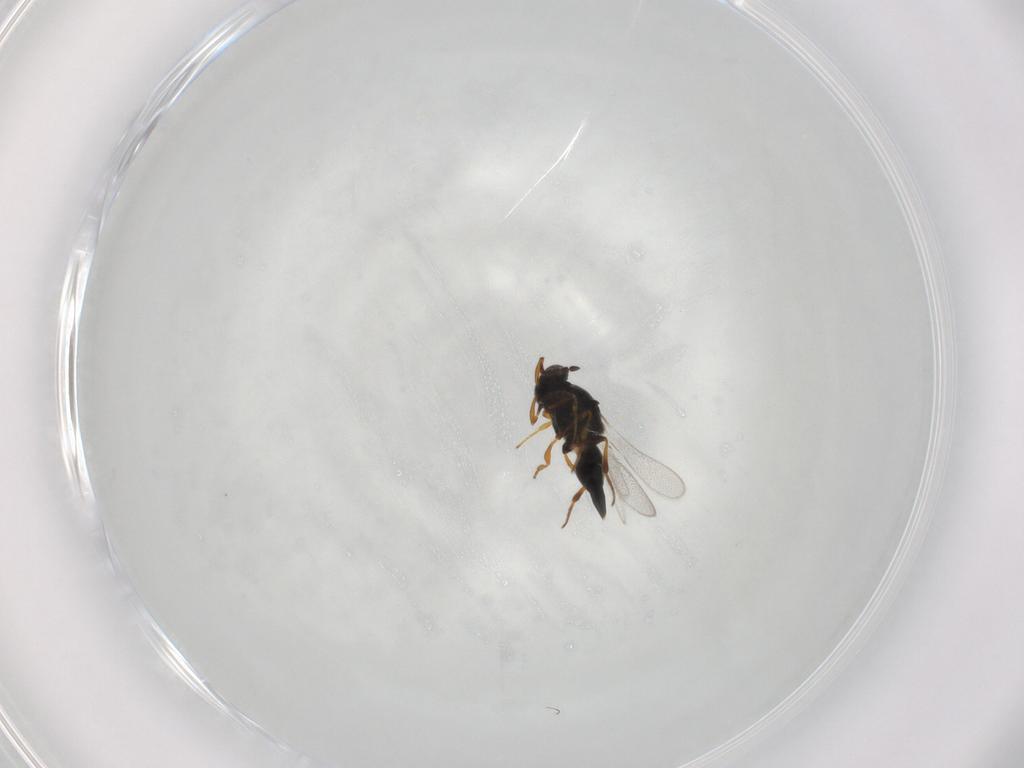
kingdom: Animalia
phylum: Arthropoda
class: Insecta
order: Hymenoptera
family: Platygastridae
